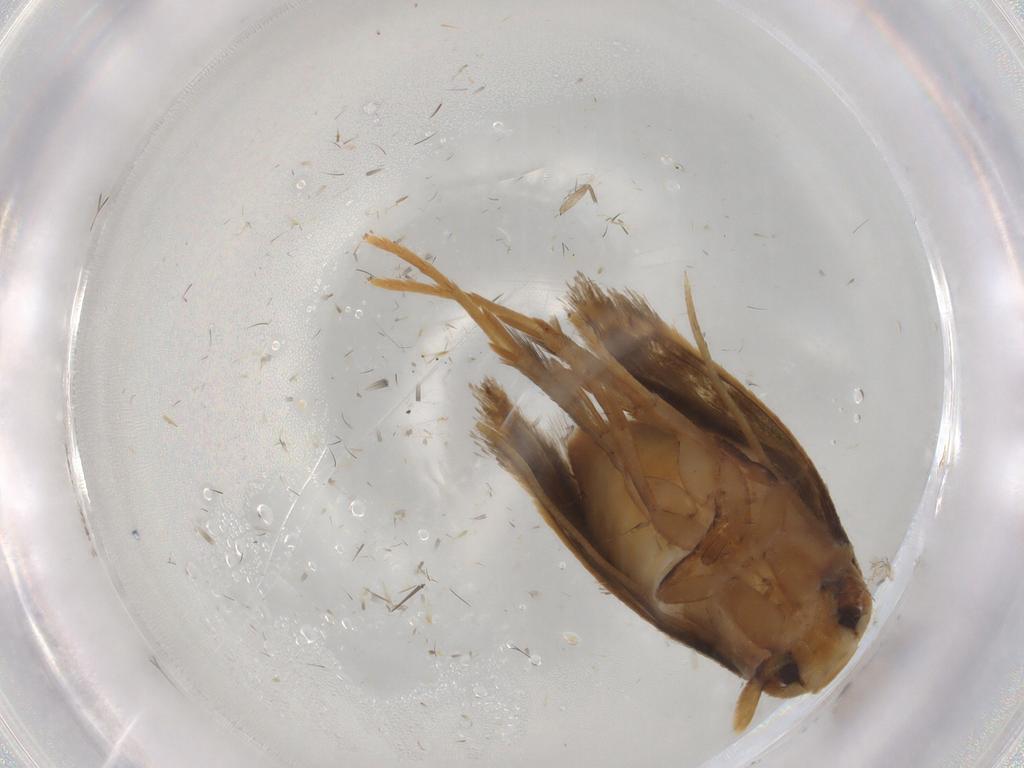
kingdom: Animalia
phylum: Arthropoda
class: Insecta
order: Lepidoptera
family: Tineidae
